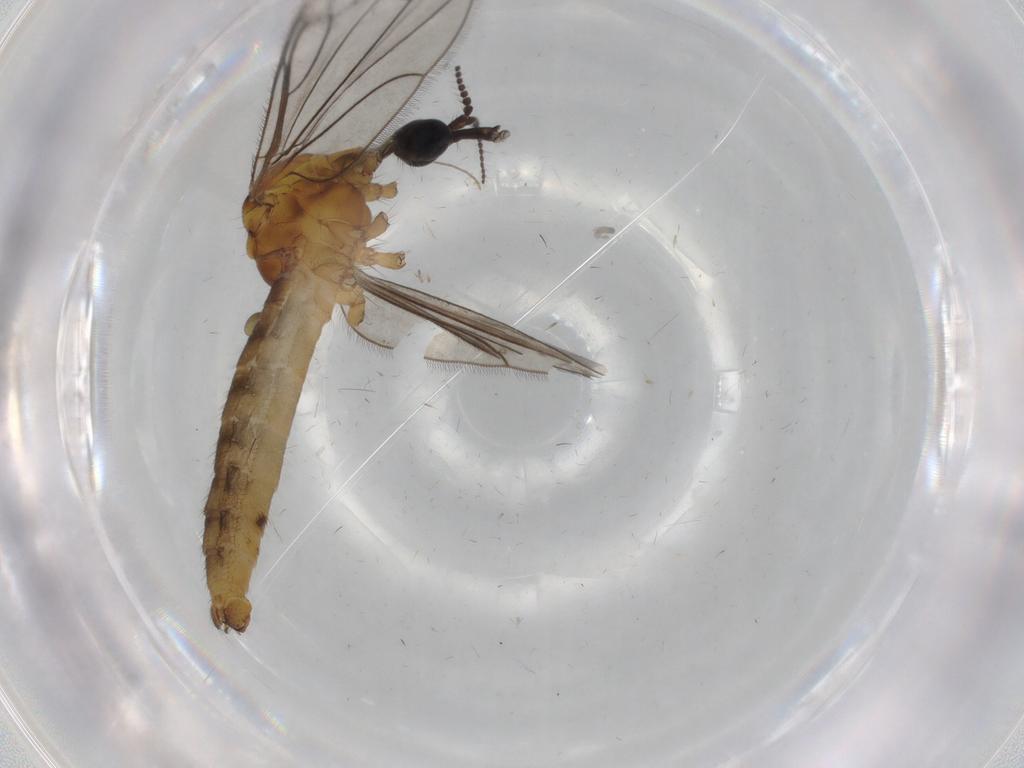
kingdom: Animalia
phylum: Arthropoda
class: Insecta
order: Diptera
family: Limoniidae
